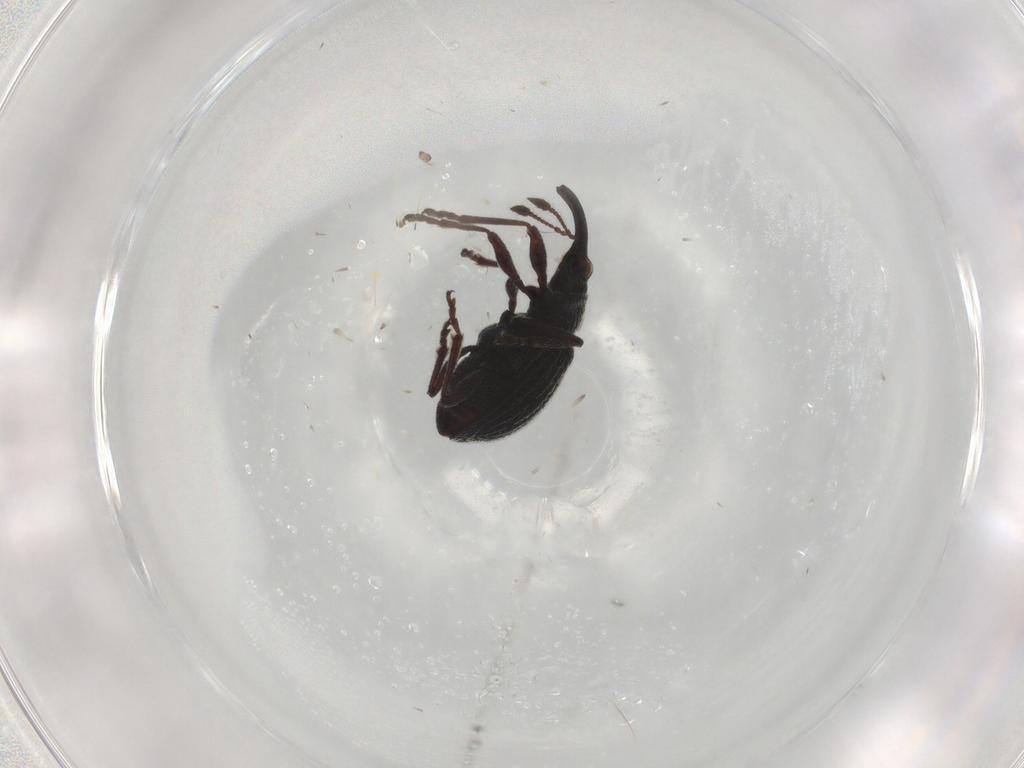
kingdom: Animalia
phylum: Arthropoda
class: Insecta
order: Coleoptera
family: Brentidae
